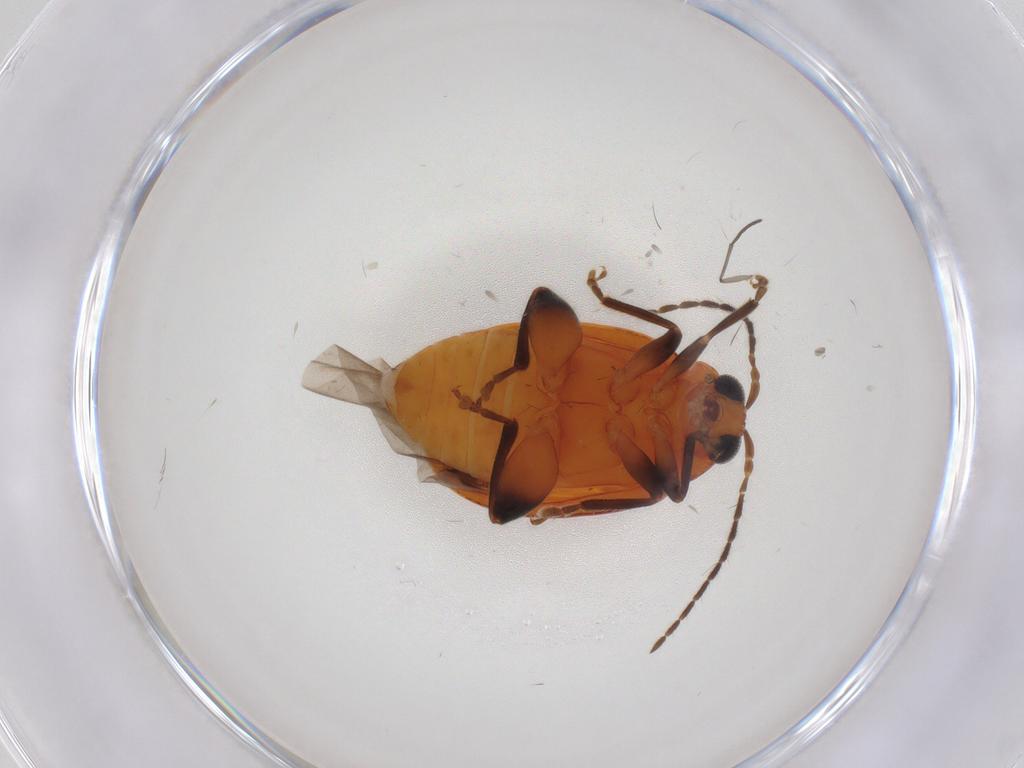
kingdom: Animalia
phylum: Arthropoda
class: Insecta
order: Coleoptera
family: Chrysomelidae
